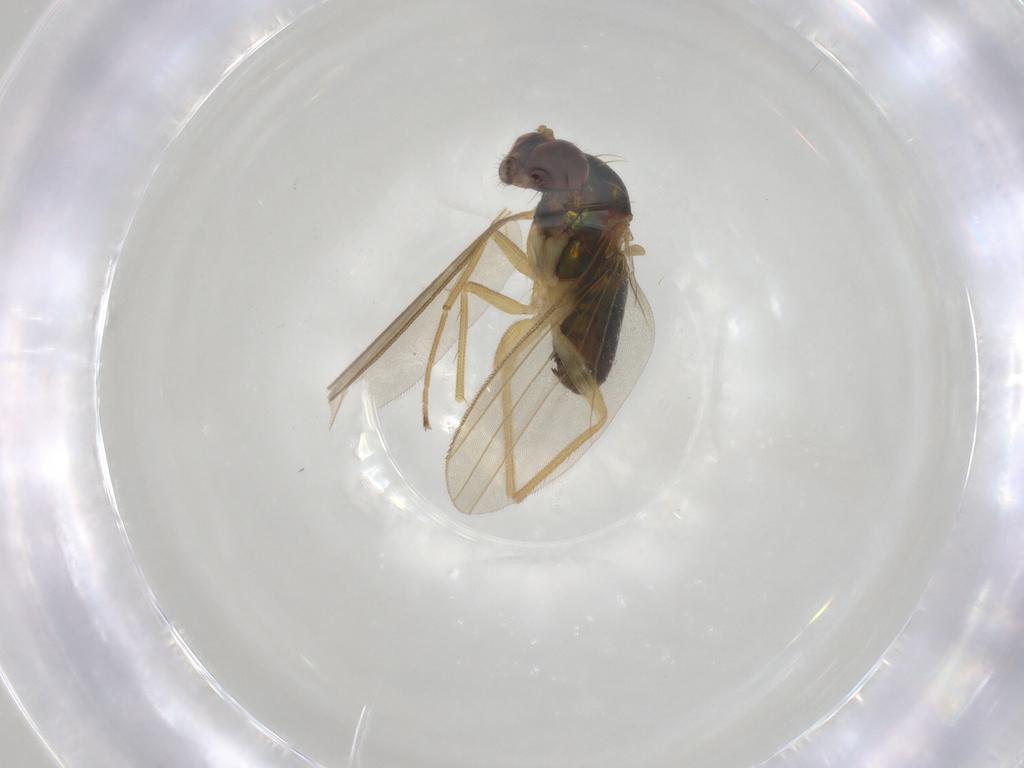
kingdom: Animalia
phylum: Arthropoda
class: Insecta
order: Diptera
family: Dolichopodidae
